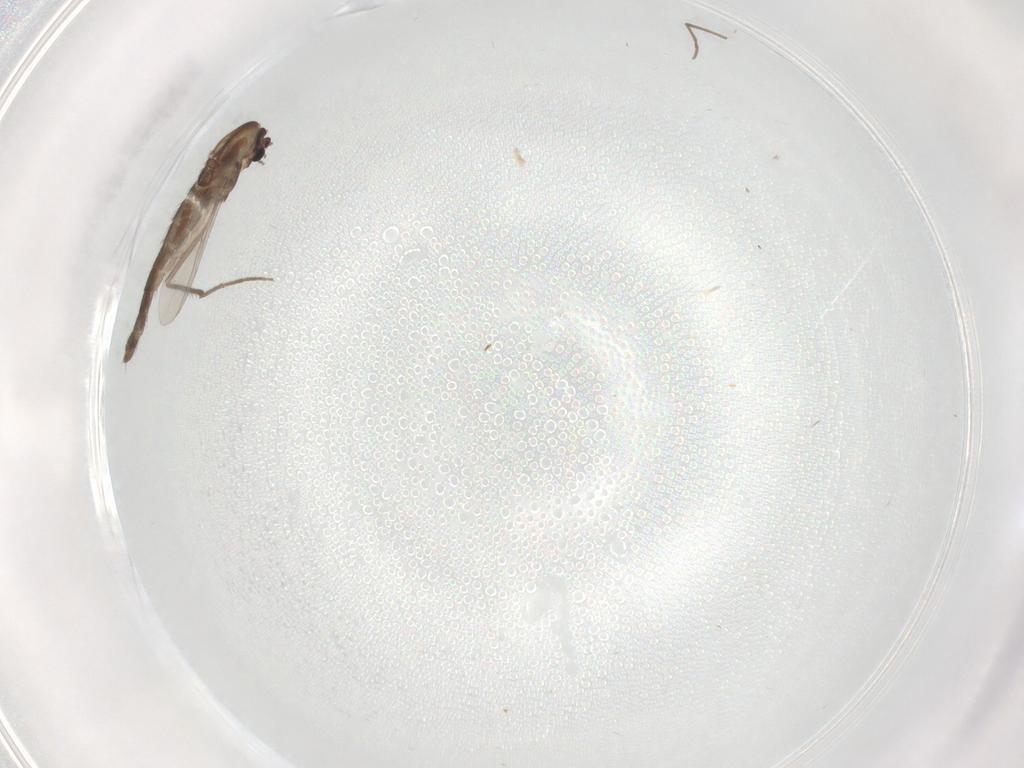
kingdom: Animalia
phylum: Arthropoda
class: Insecta
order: Diptera
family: Chironomidae
